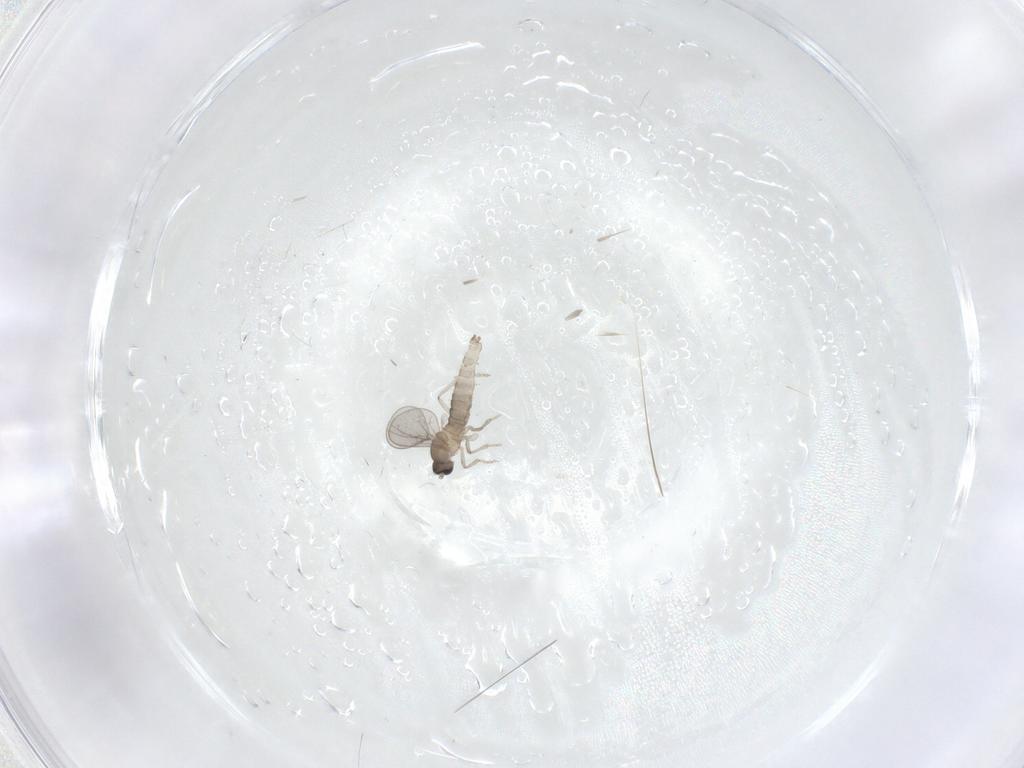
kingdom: Animalia
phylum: Arthropoda
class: Insecta
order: Diptera
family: Cecidomyiidae
